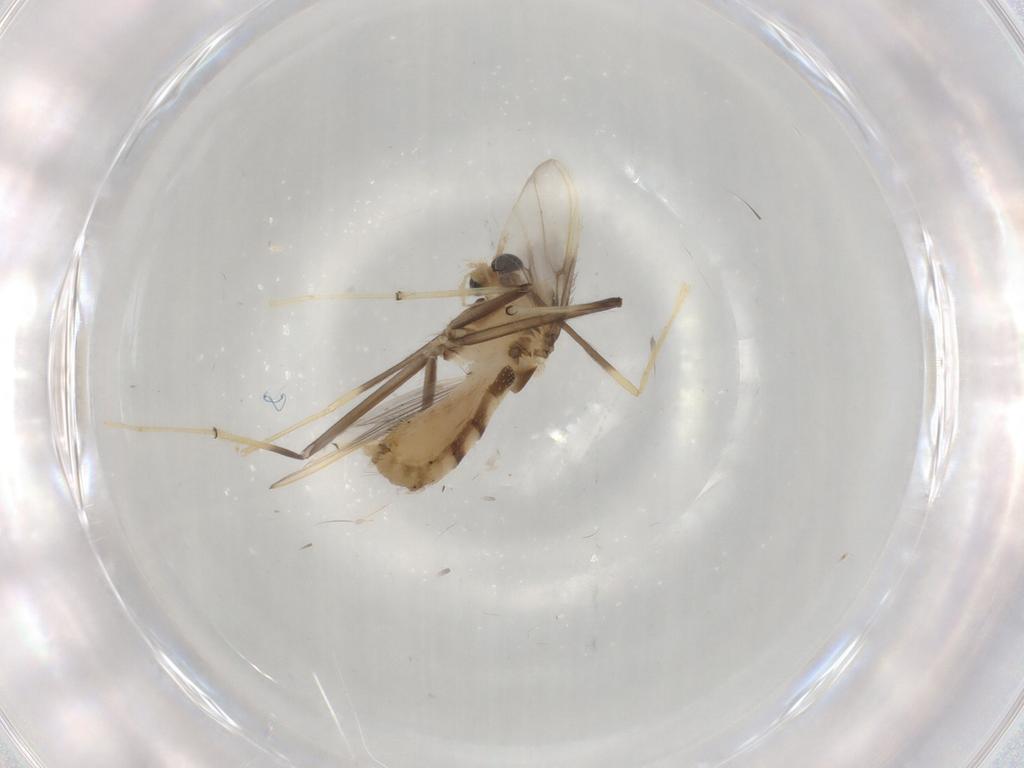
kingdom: Animalia
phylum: Arthropoda
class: Insecta
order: Diptera
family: Chironomidae
